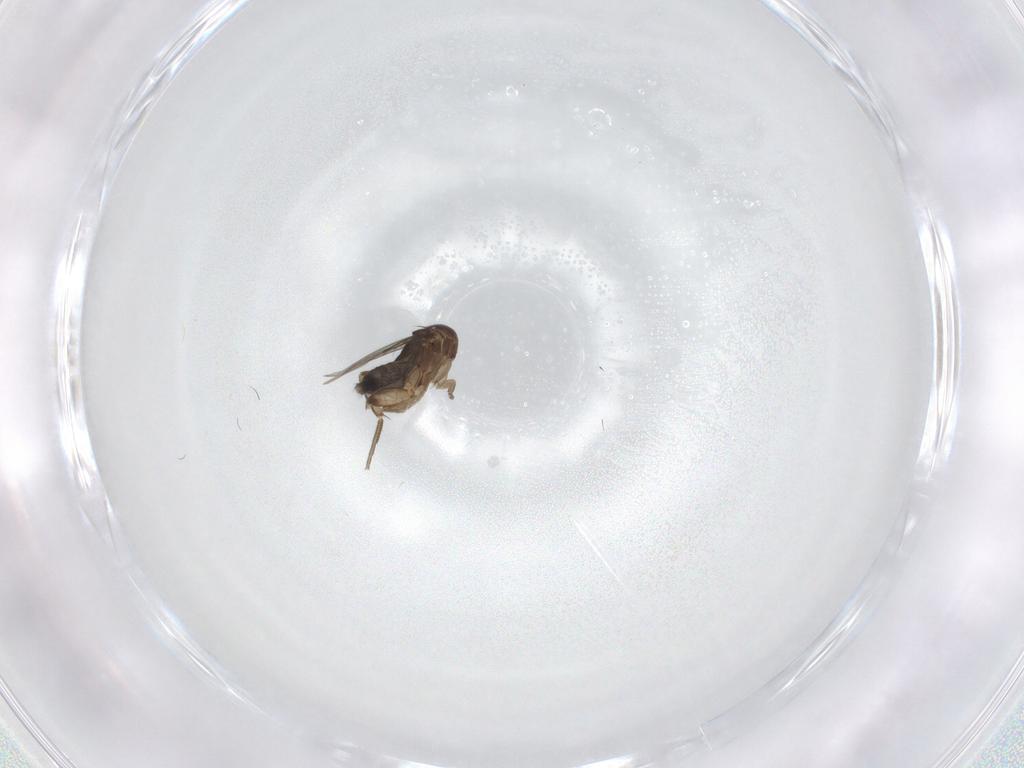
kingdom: Animalia
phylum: Arthropoda
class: Insecta
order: Diptera
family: Phoridae
